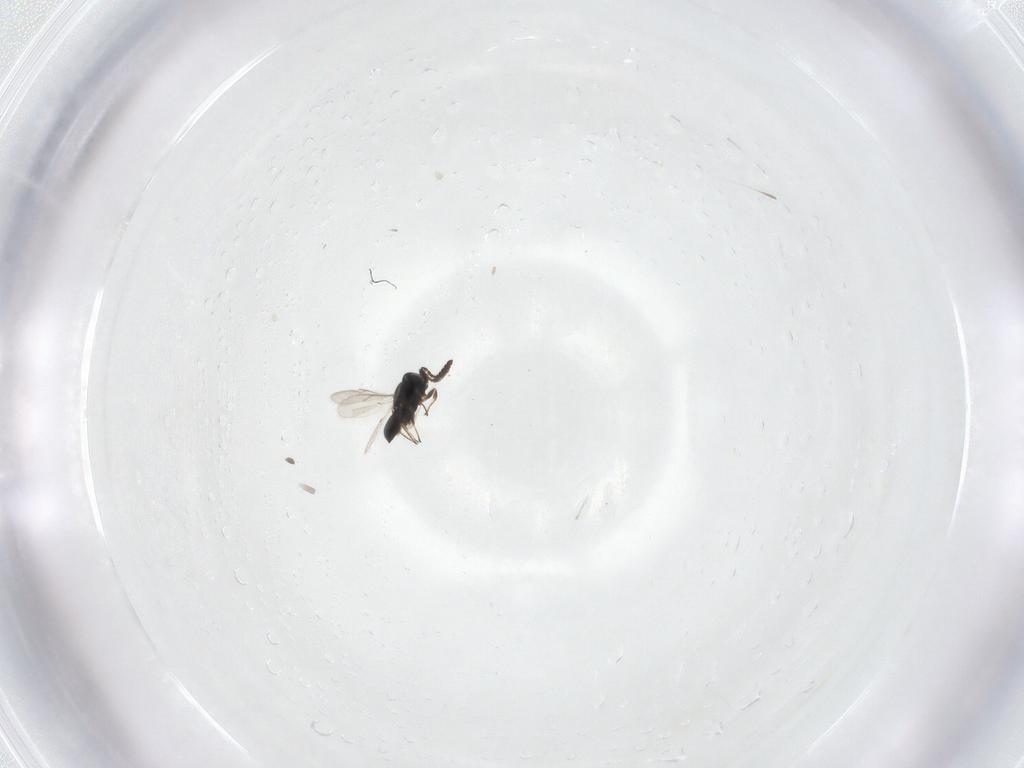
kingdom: Animalia
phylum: Arthropoda
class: Insecta
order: Hymenoptera
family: Scelionidae
